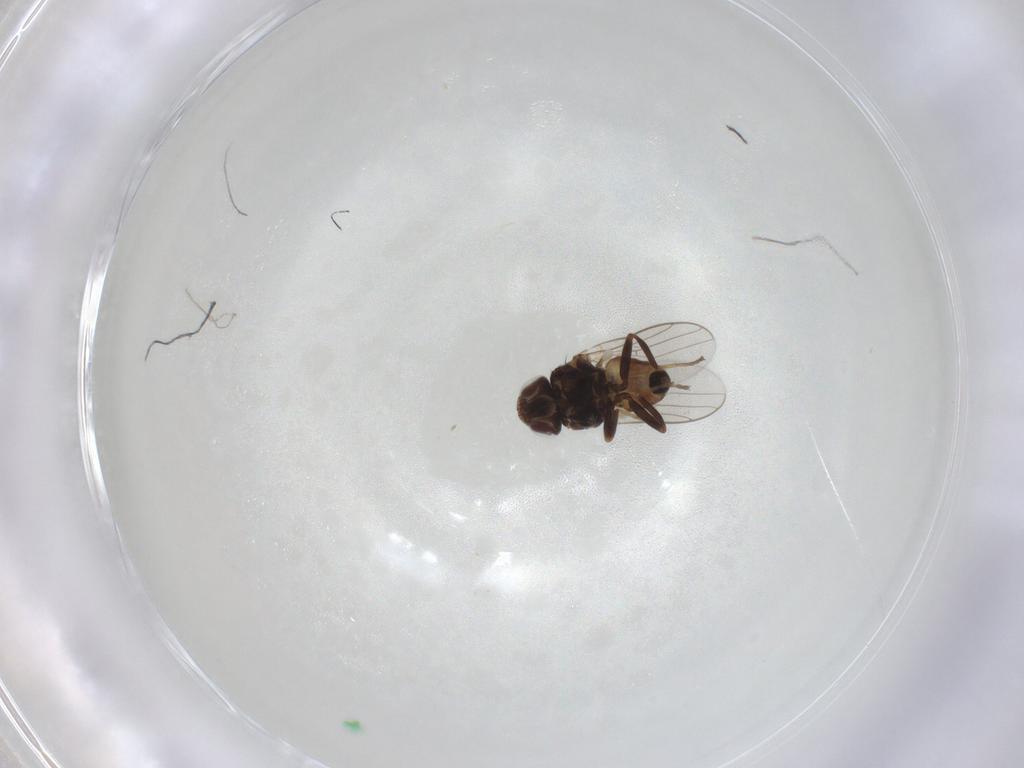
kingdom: Animalia
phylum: Arthropoda
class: Insecta
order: Diptera
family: Chloropidae
